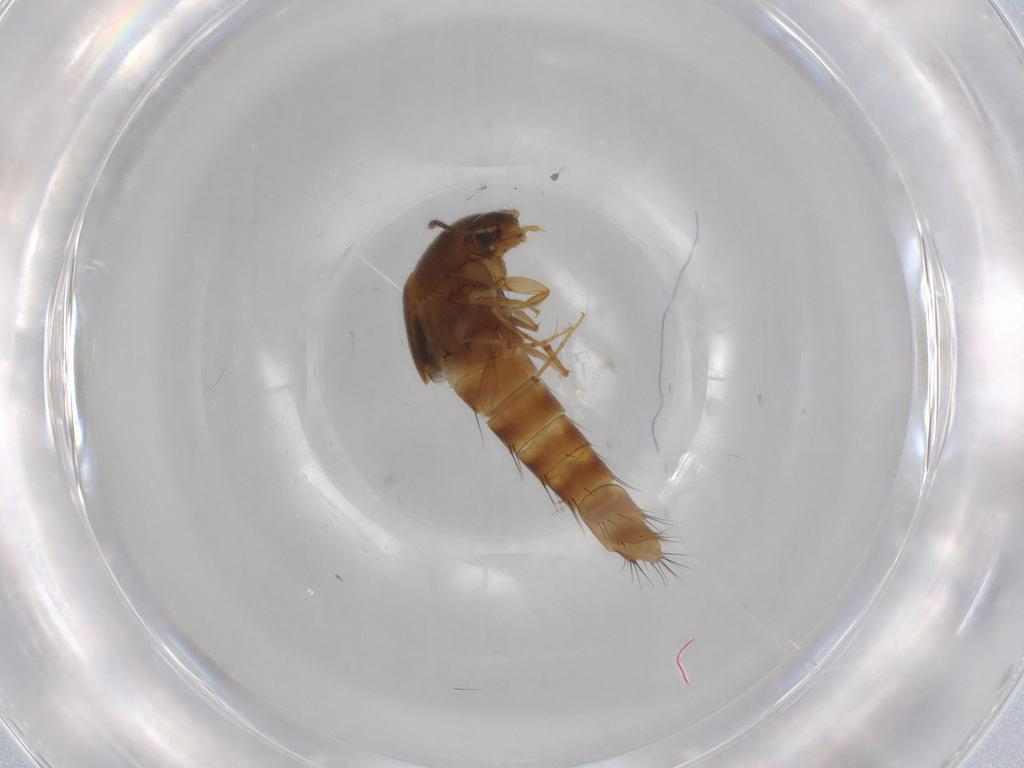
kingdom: Animalia
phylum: Arthropoda
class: Insecta
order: Coleoptera
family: Staphylinidae
